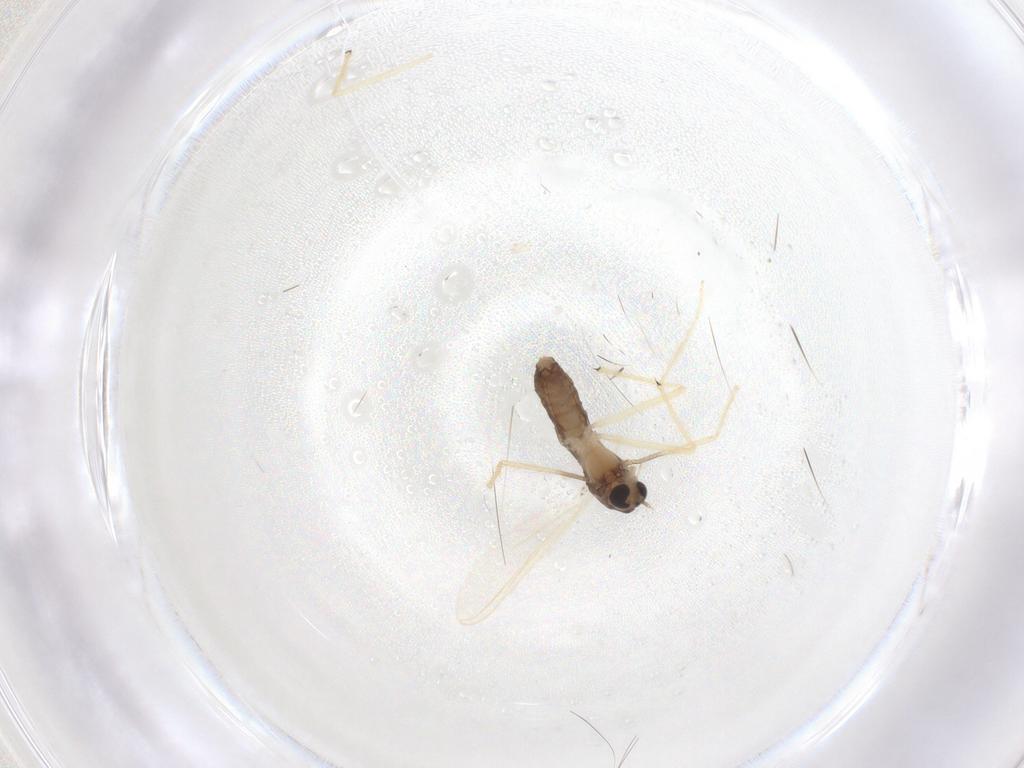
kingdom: Animalia
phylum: Arthropoda
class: Insecta
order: Diptera
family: Chironomidae
